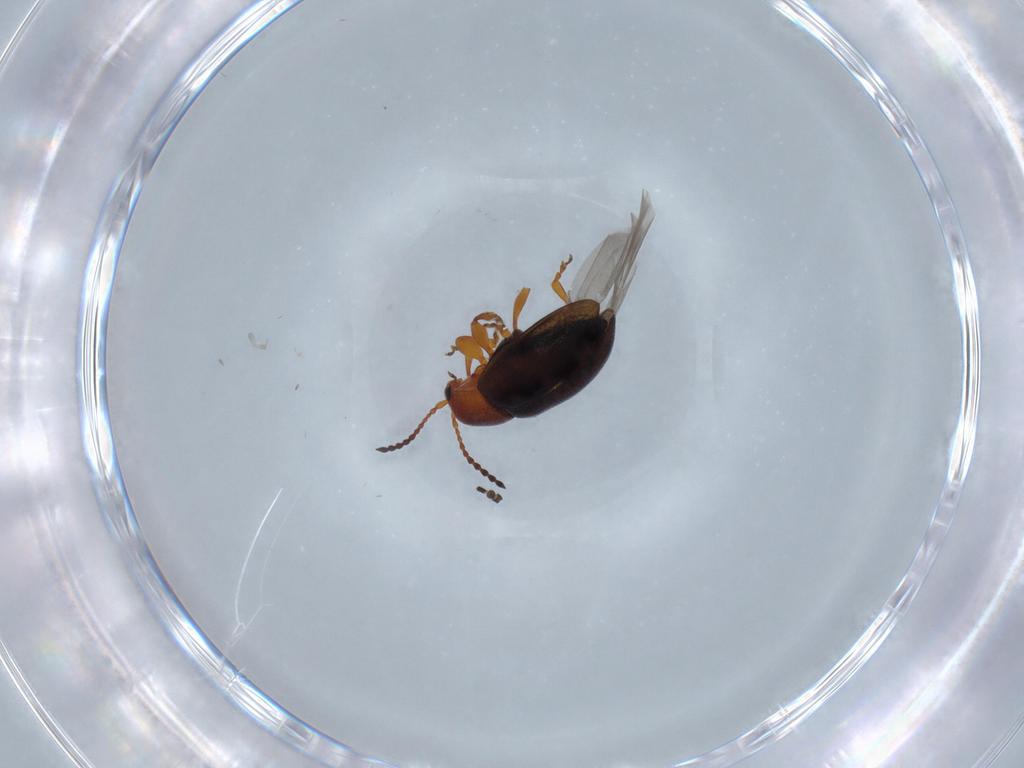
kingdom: Animalia
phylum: Arthropoda
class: Insecta
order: Coleoptera
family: Chrysomelidae
